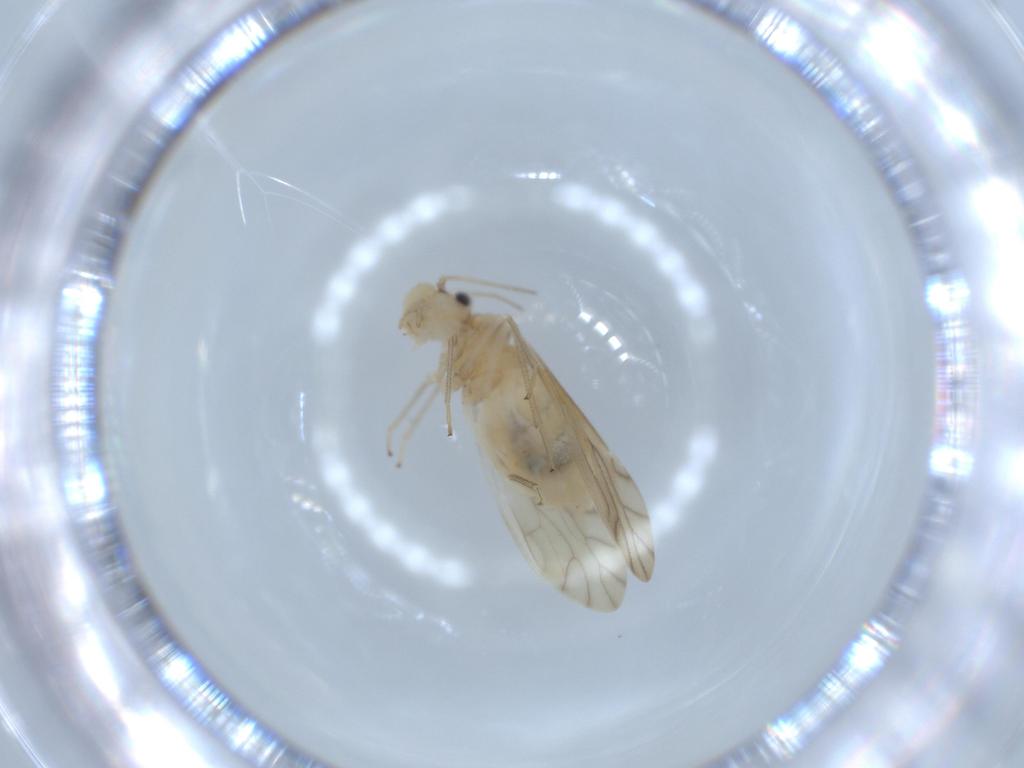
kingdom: Animalia
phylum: Arthropoda
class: Insecta
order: Psocodea
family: Caeciliusidae
